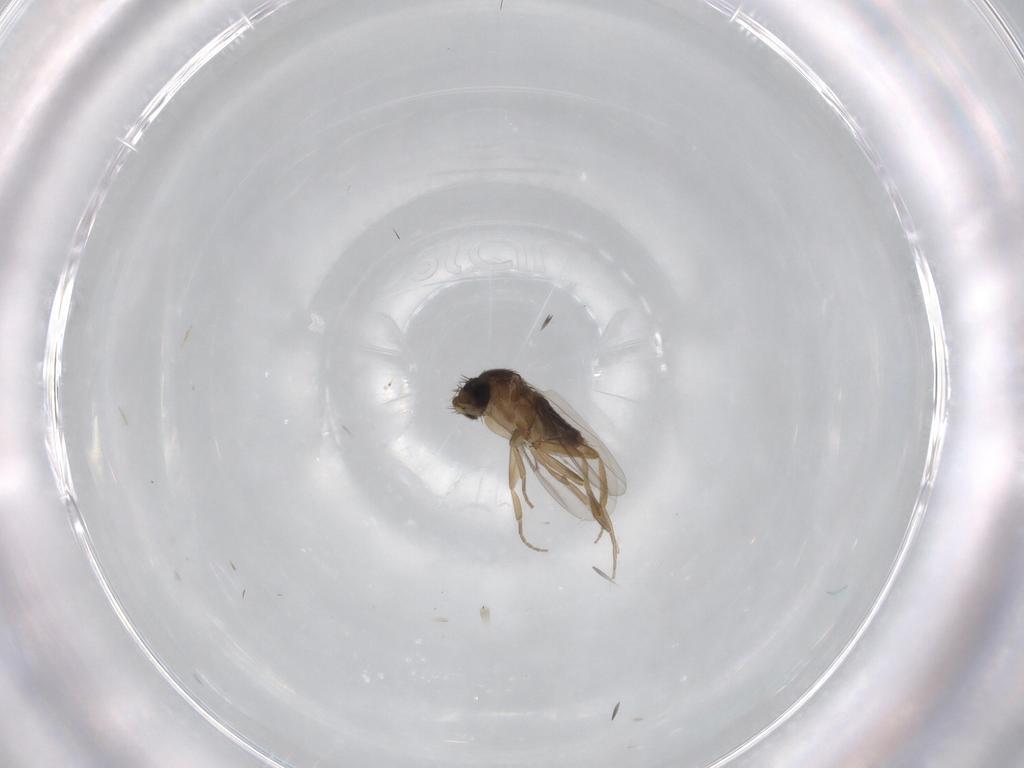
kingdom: Animalia
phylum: Arthropoda
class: Insecta
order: Diptera
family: Phoridae
